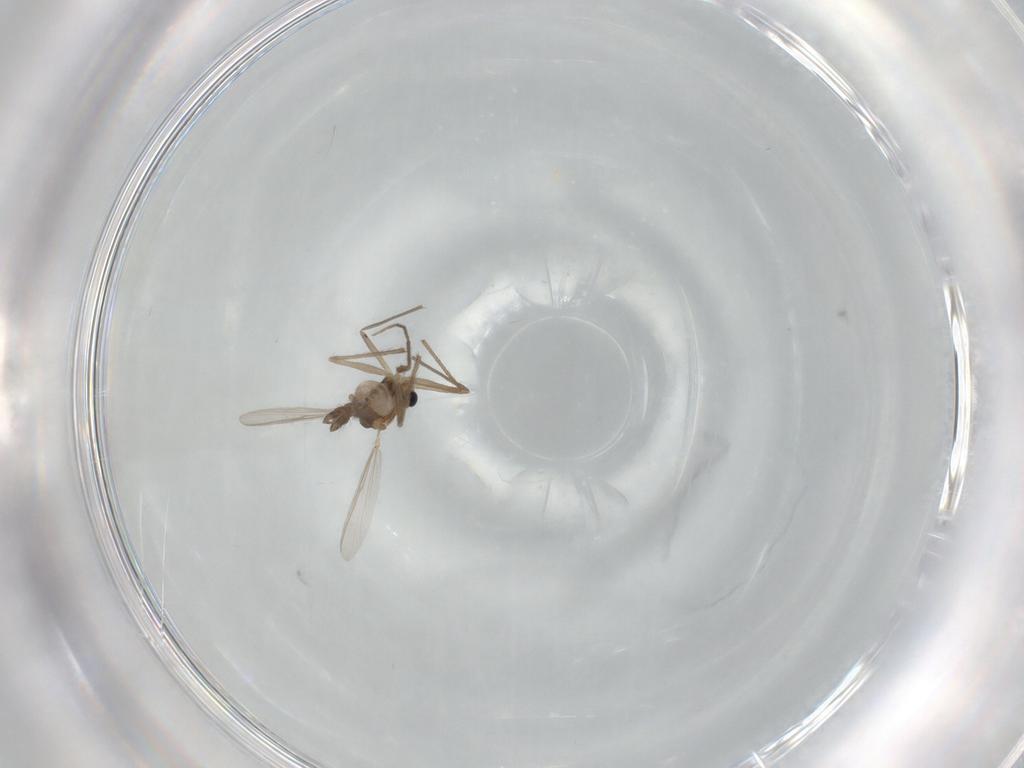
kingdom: Animalia
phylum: Arthropoda
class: Insecta
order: Diptera
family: Chironomidae
